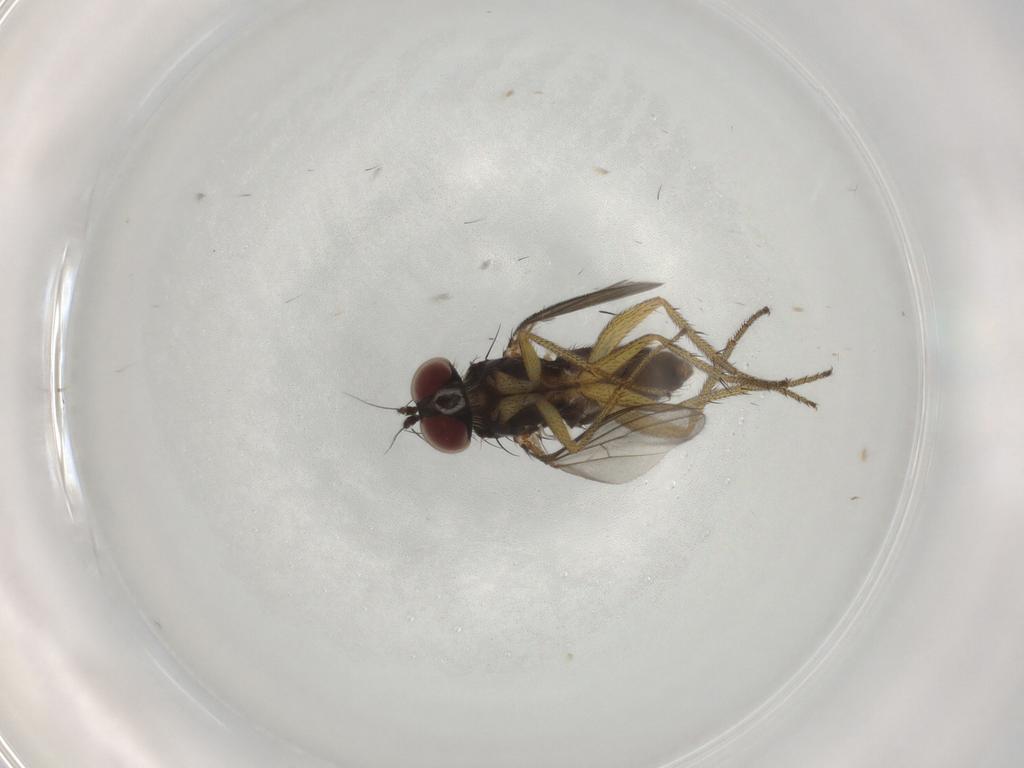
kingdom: Animalia
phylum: Arthropoda
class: Insecta
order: Diptera
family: Dolichopodidae
